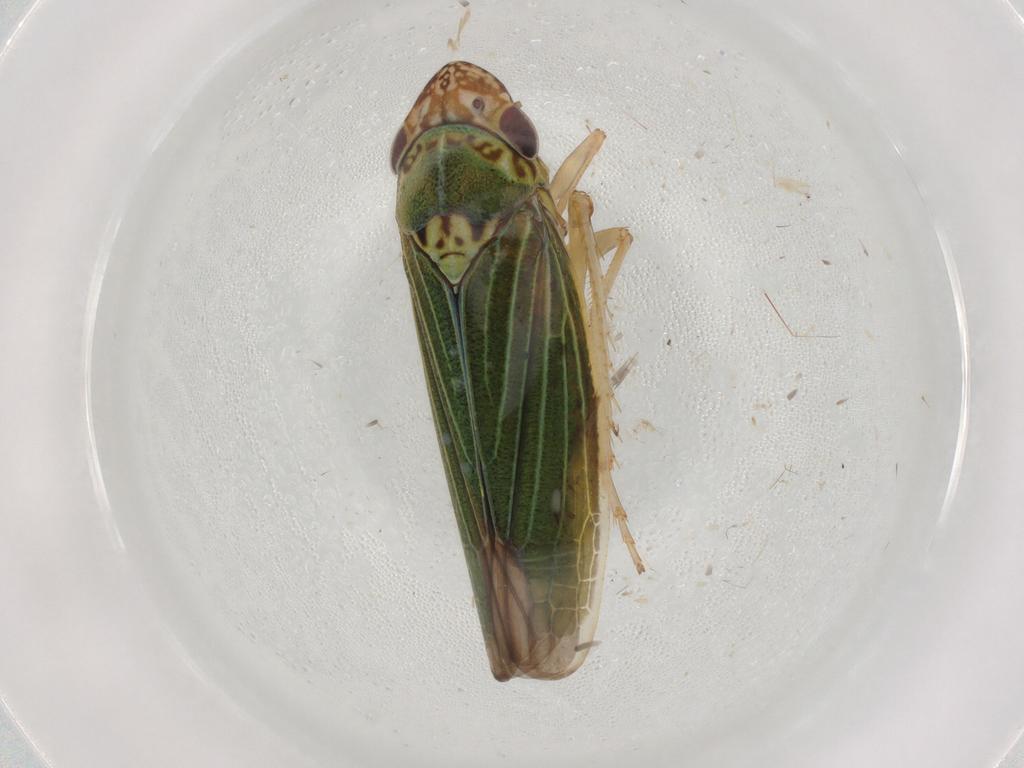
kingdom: Animalia
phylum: Arthropoda
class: Insecta
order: Hemiptera
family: Cicadellidae
